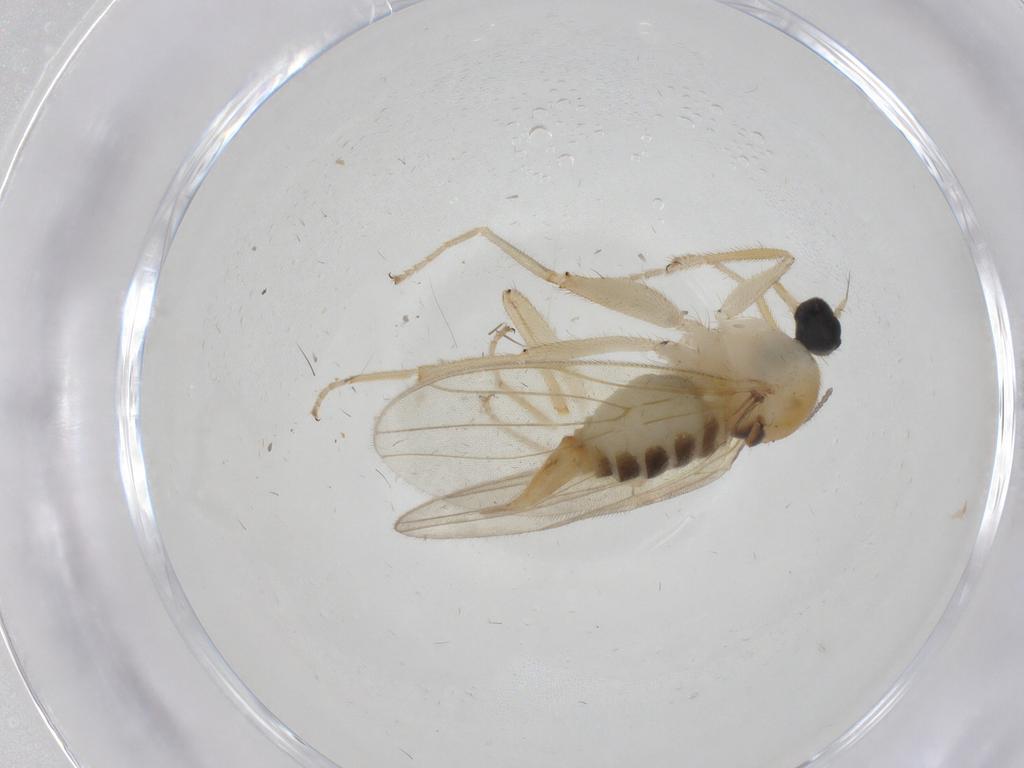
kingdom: Animalia
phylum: Arthropoda
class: Insecta
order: Diptera
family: Hybotidae
